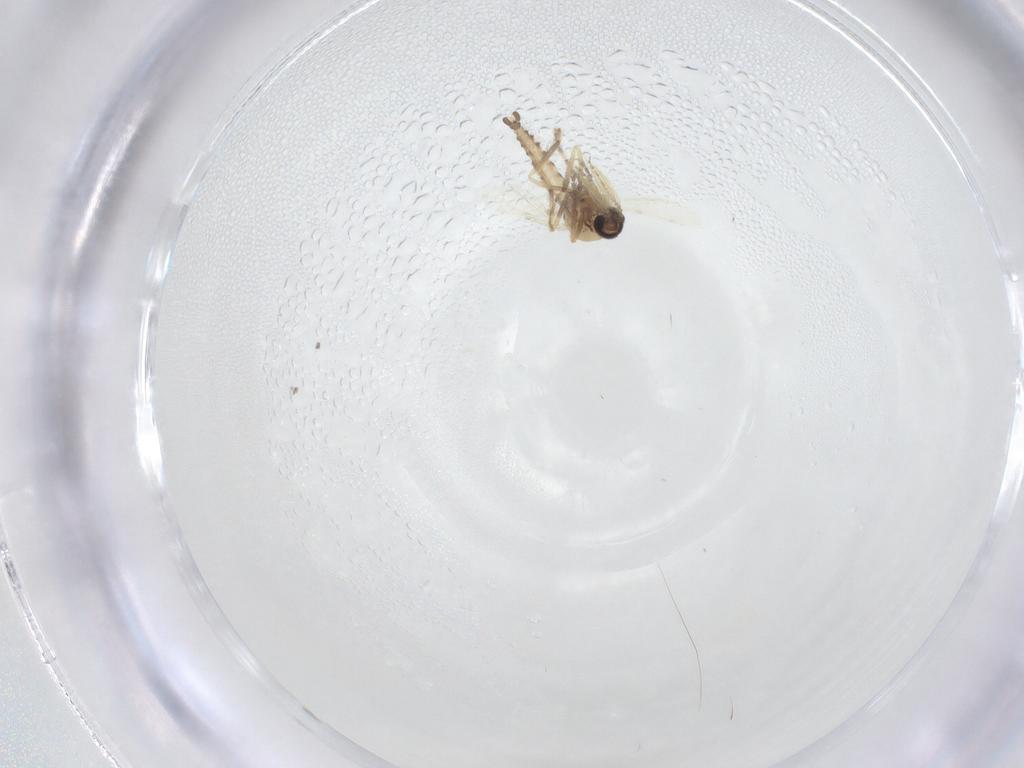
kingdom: Animalia
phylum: Arthropoda
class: Insecta
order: Diptera
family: Ceratopogonidae
